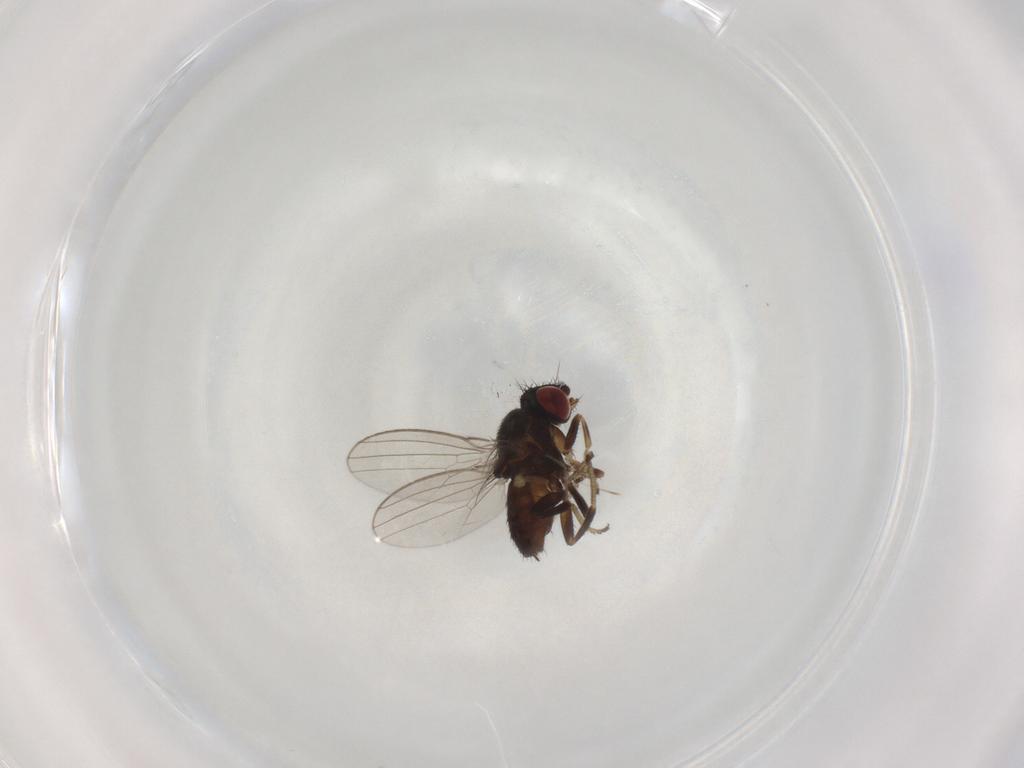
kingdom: Animalia
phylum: Arthropoda
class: Insecta
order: Diptera
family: Milichiidae
